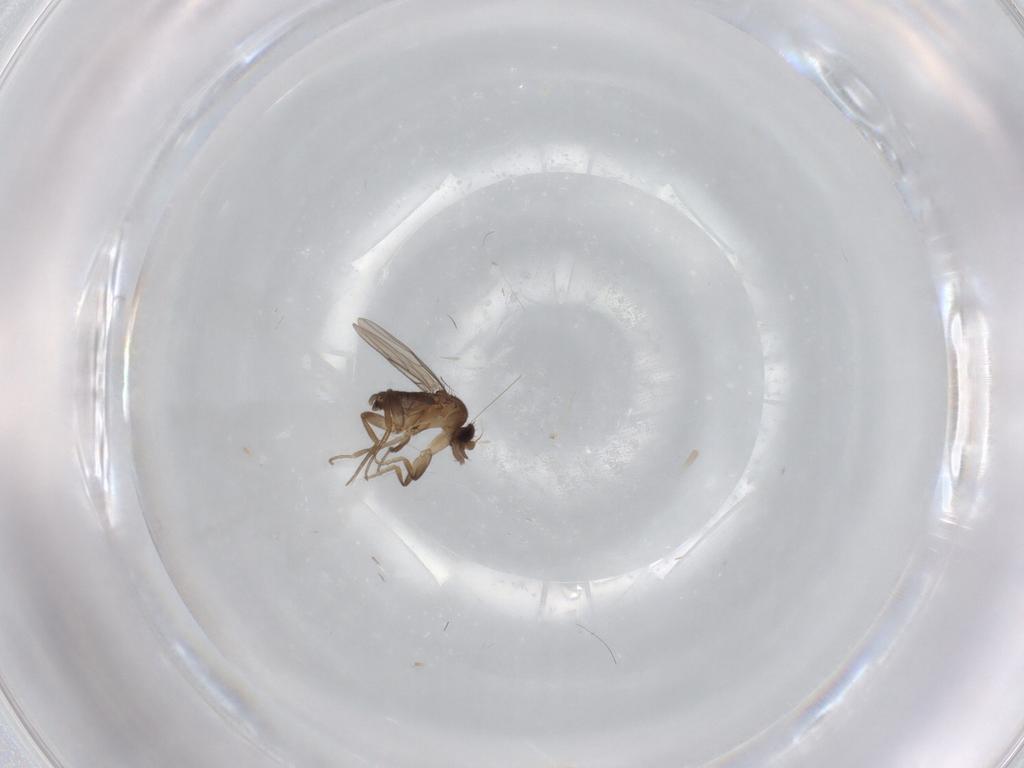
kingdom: Animalia
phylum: Arthropoda
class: Insecta
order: Diptera
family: Phoridae
